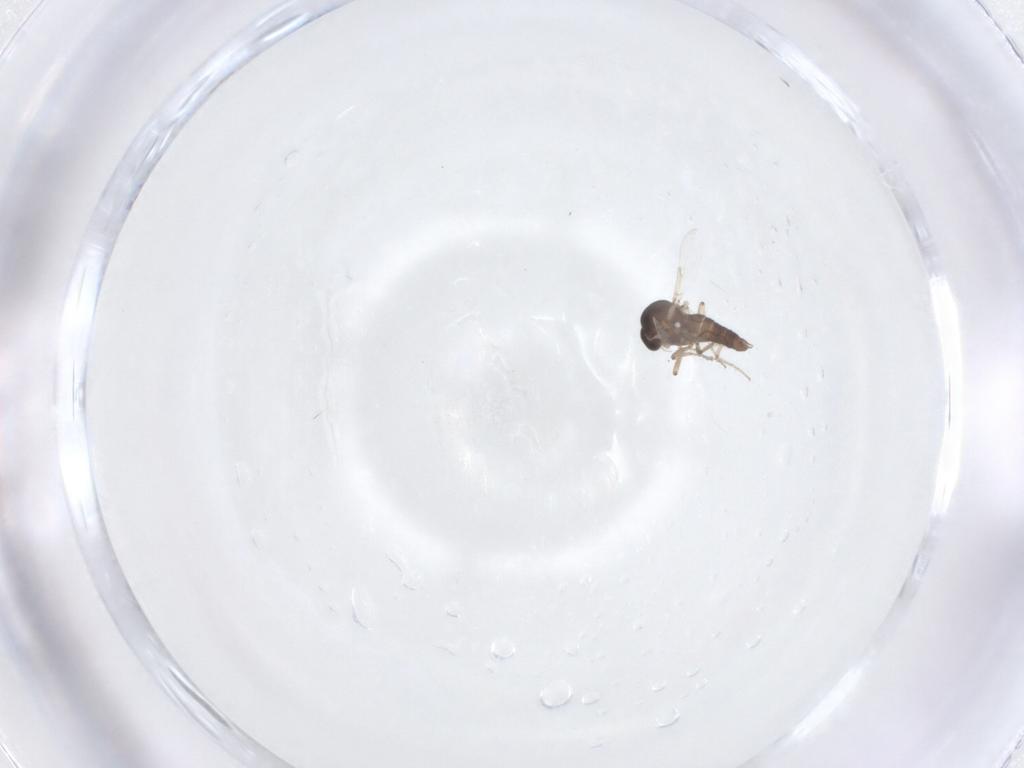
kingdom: Animalia
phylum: Arthropoda
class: Insecta
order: Diptera
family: Ceratopogonidae
